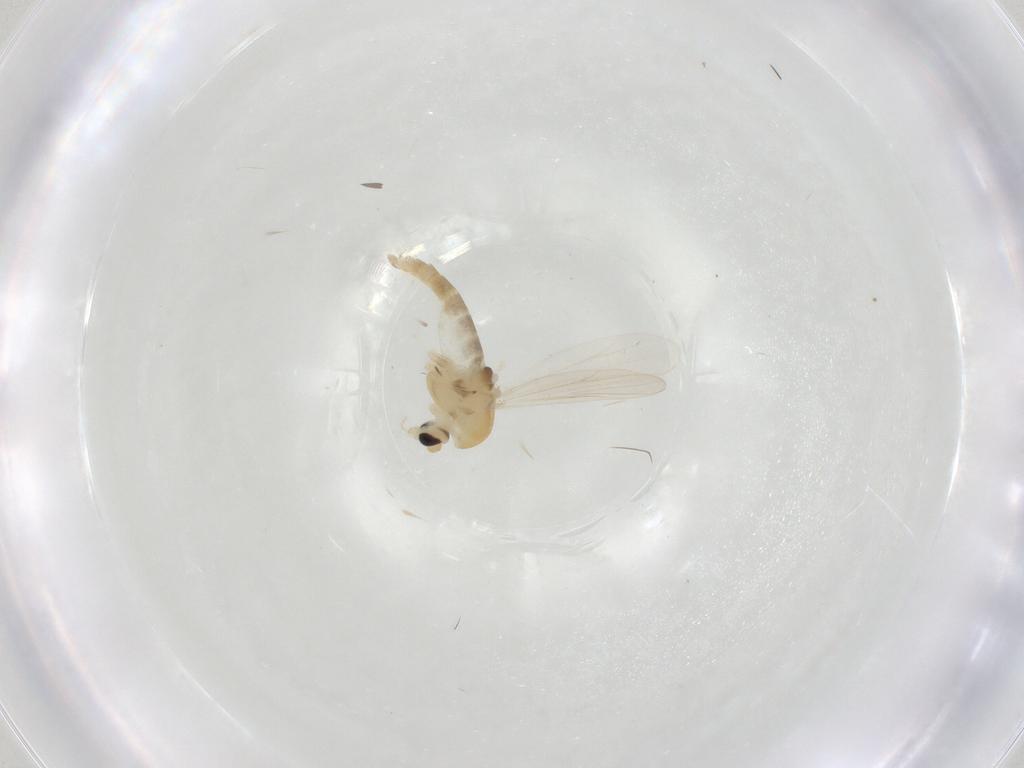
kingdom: Animalia
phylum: Arthropoda
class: Insecta
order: Diptera
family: Chironomidae
